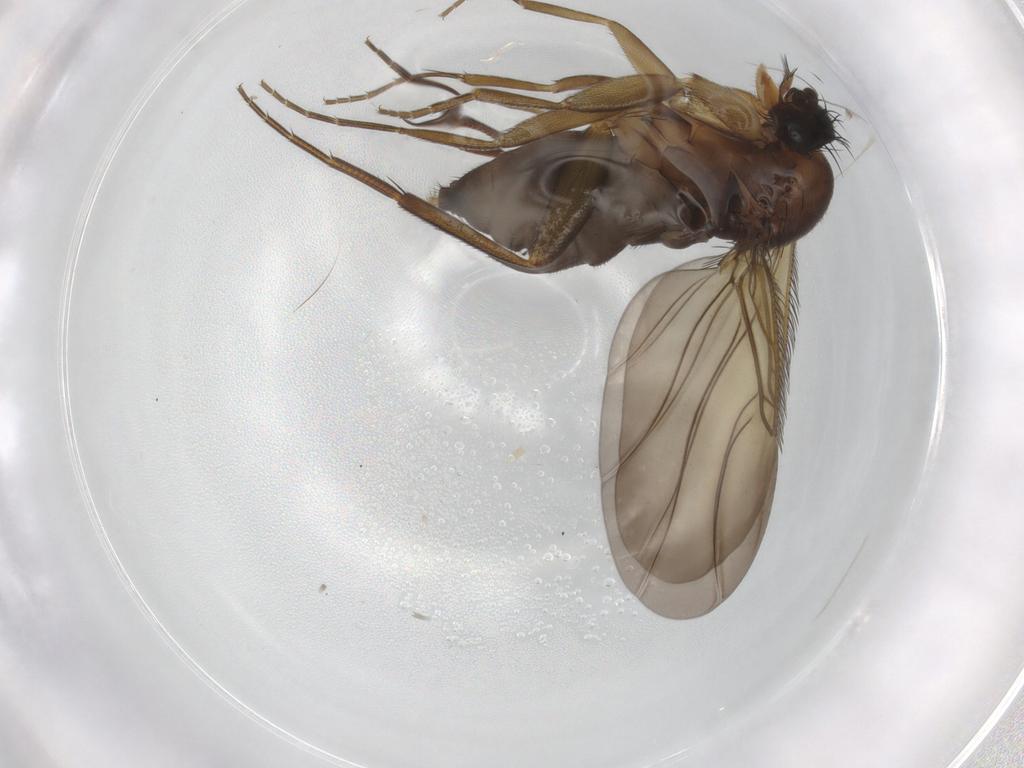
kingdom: Animalia
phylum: Arthropoda
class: Insecta
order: Diptera
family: Phoridae
